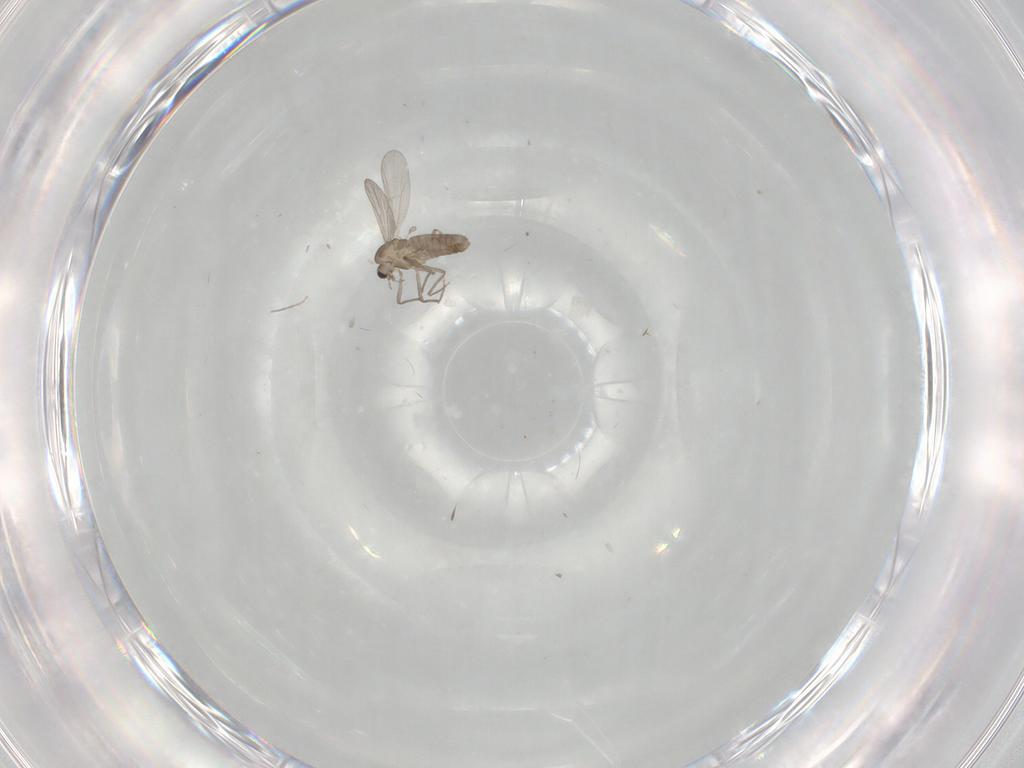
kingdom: Animalia
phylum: Arthropoda
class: Insecta
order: Diptera
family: Chironomidae
